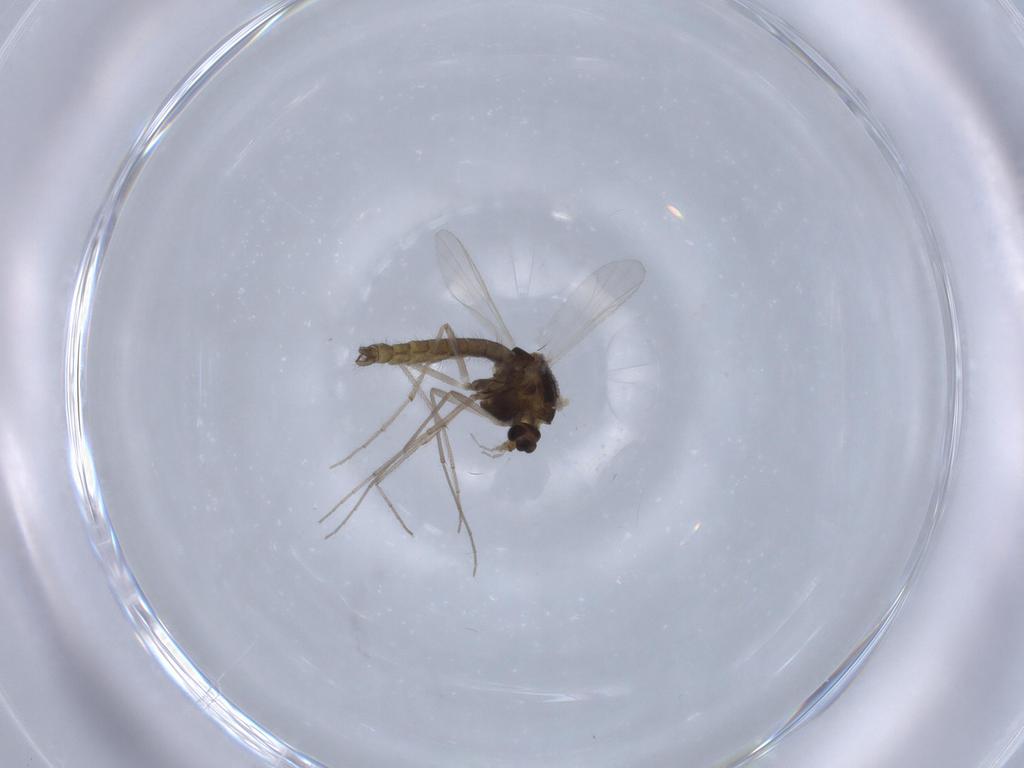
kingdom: Animalia
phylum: Arthropoda
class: Insecta
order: Diptera
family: Chironomidae
